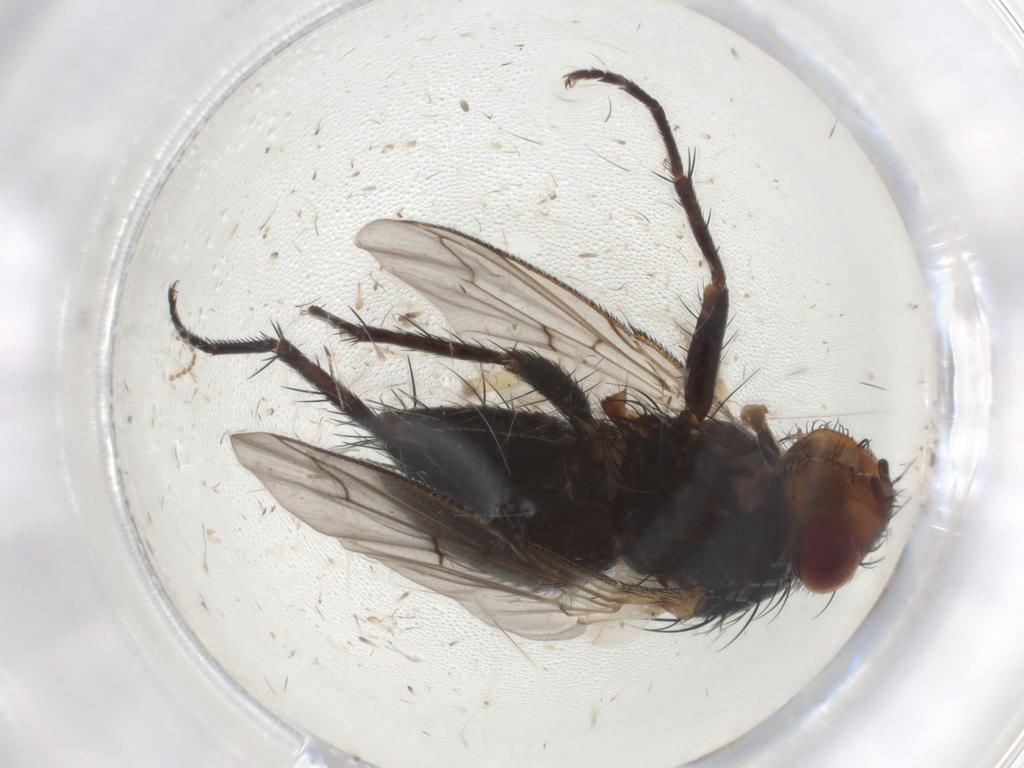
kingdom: Animalia
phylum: Arthropoda
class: Insecta
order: Diptera
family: Tachinidae
